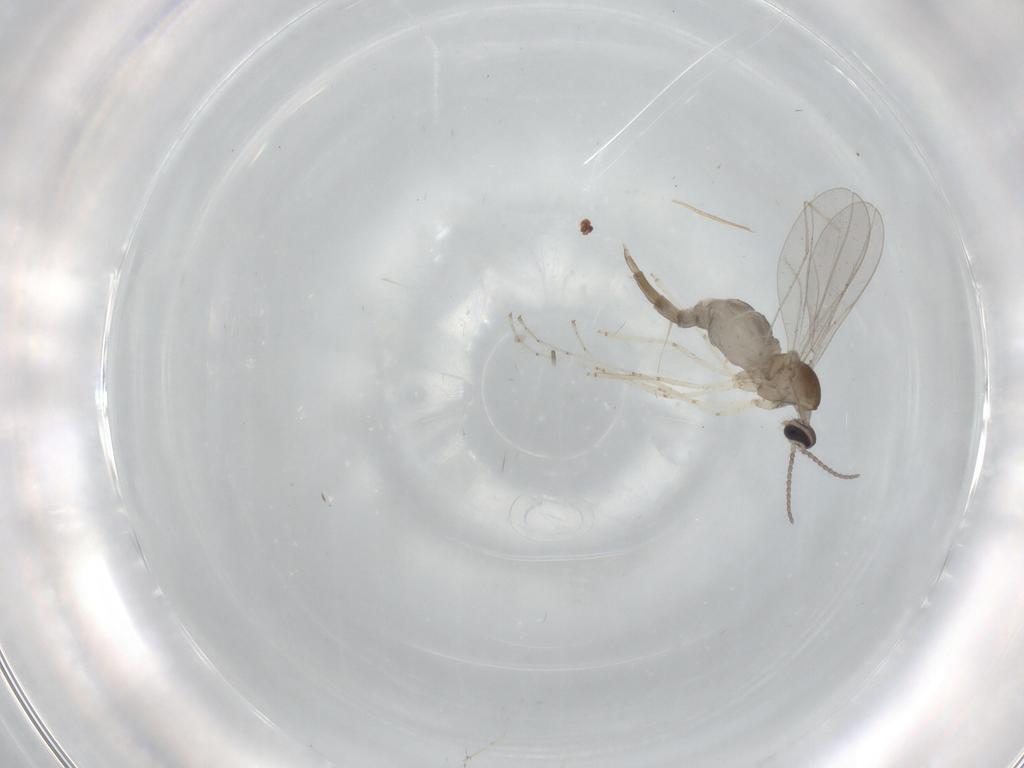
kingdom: Animalia
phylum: Arthropoda
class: Insecta
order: Diptera
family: Cecidomyiidae
